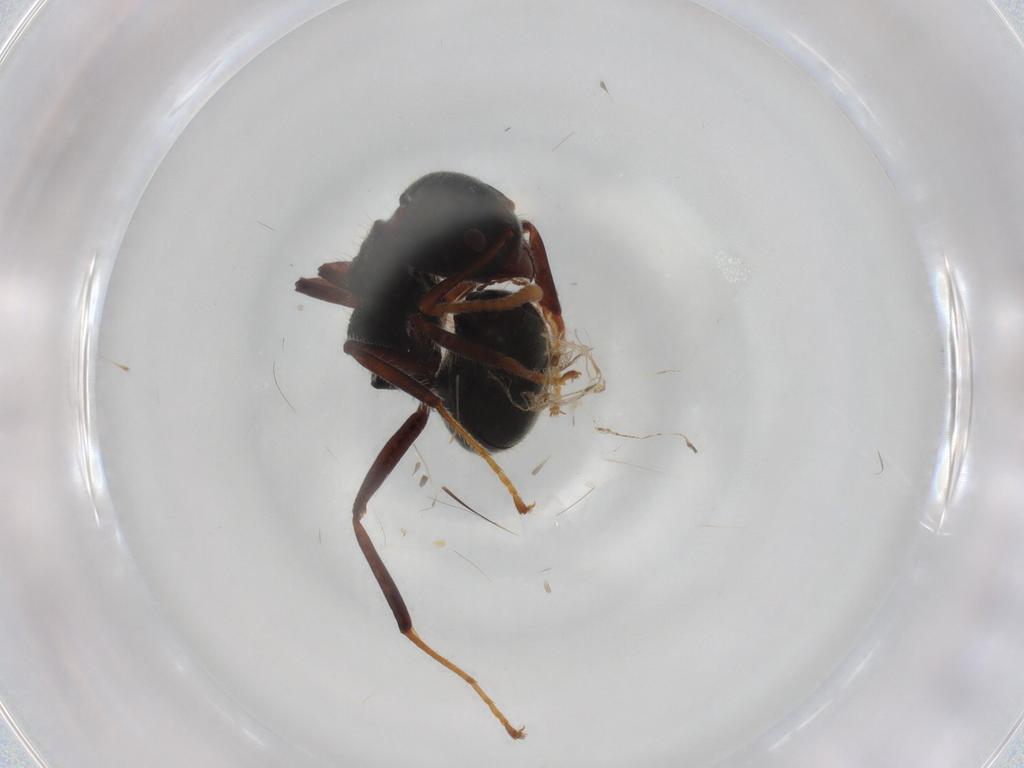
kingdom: Animalia
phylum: Arthropoda
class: Insecta
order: Hymenoptera
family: Formicidae
